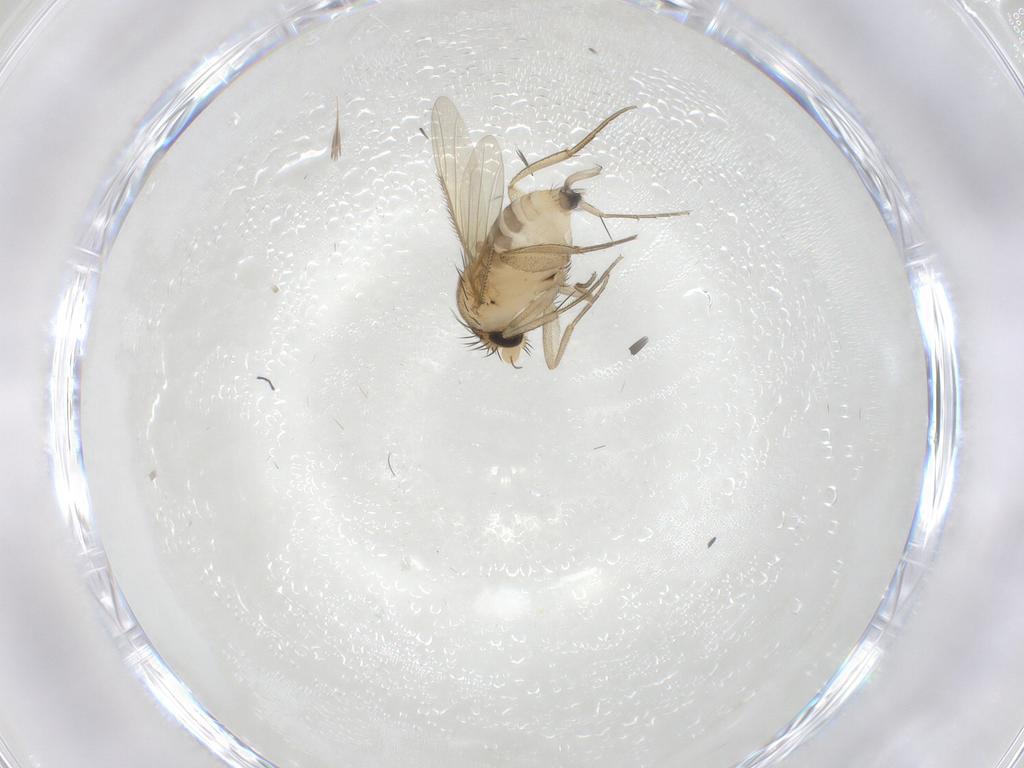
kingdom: Animalia
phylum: Arthropoda
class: Insecta
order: Diptera
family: Phoridae
